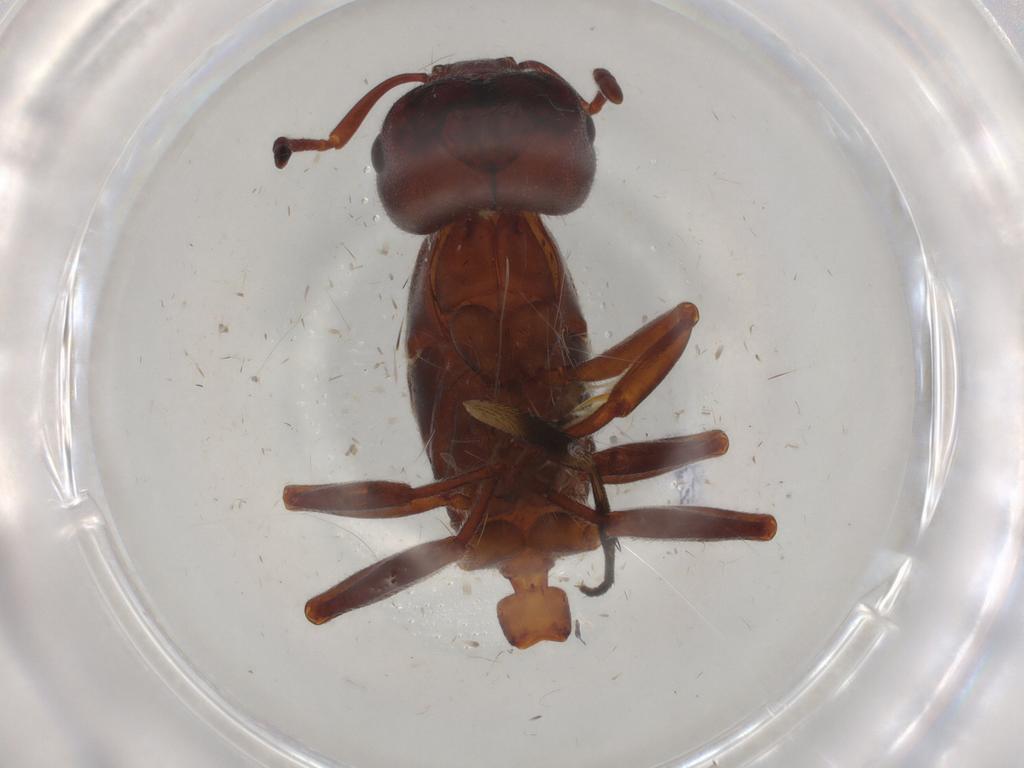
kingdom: Animalia
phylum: Arthropoda
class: Insecta
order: Hymenoptera
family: Formicidae
